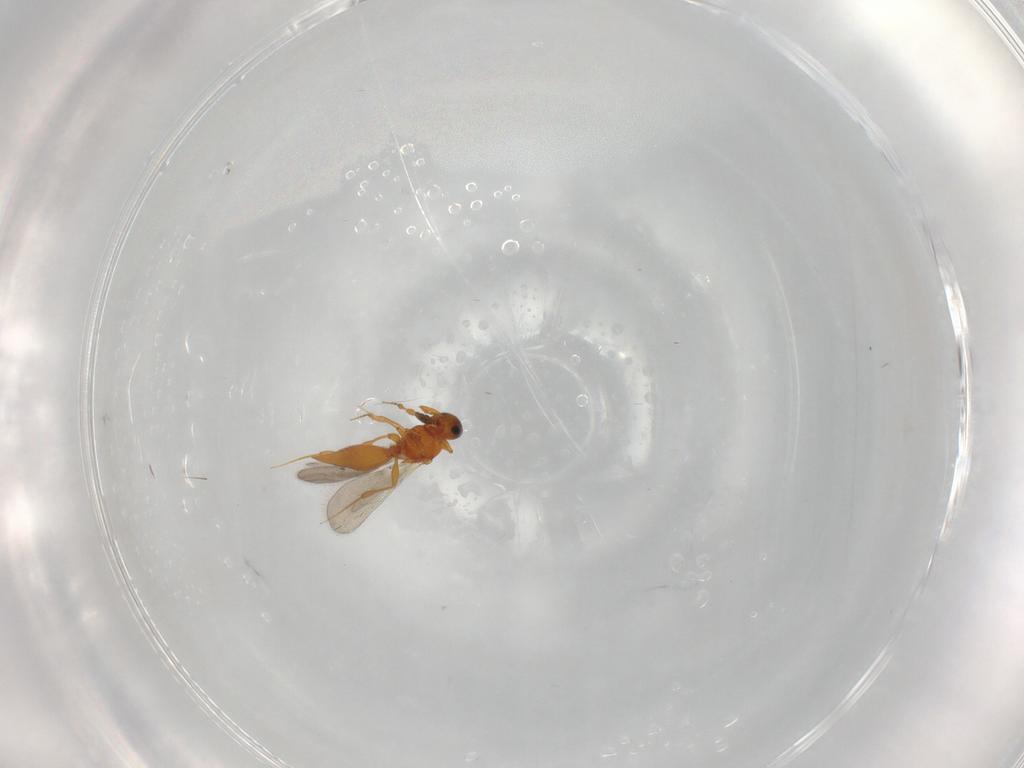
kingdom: Animalia
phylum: Arthropoda
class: Insecta
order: Hymenoptera
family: Platygastridae
